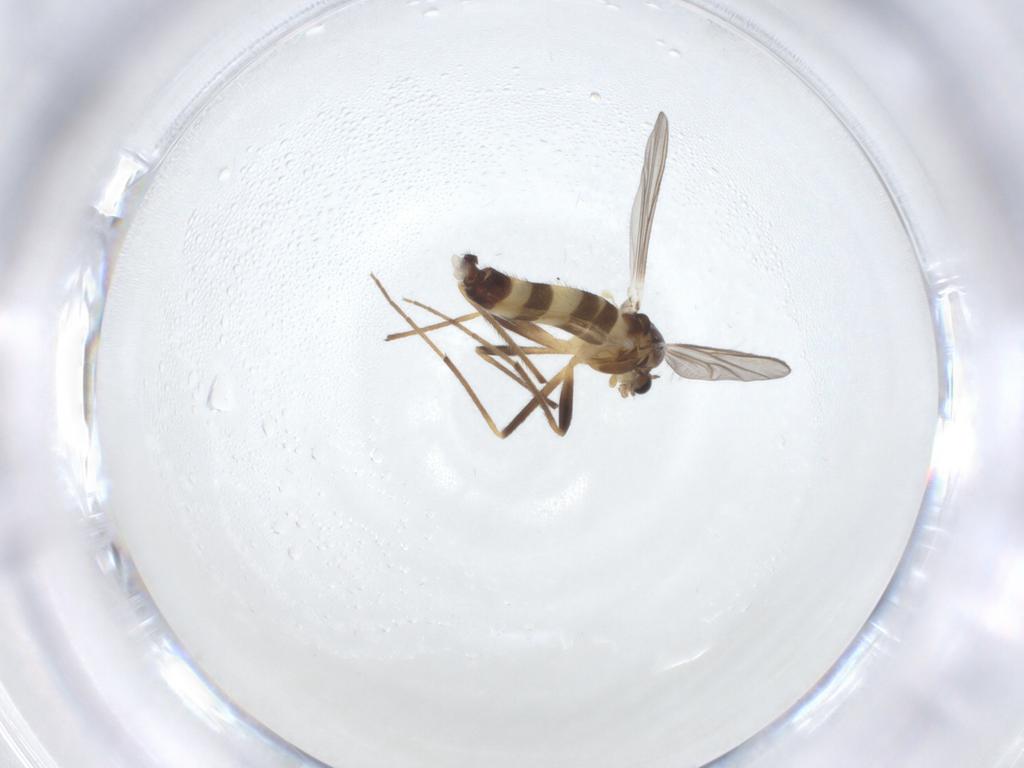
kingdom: Animalia
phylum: Arthropoda
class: Insecta
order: Diptera
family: Chironomidae
